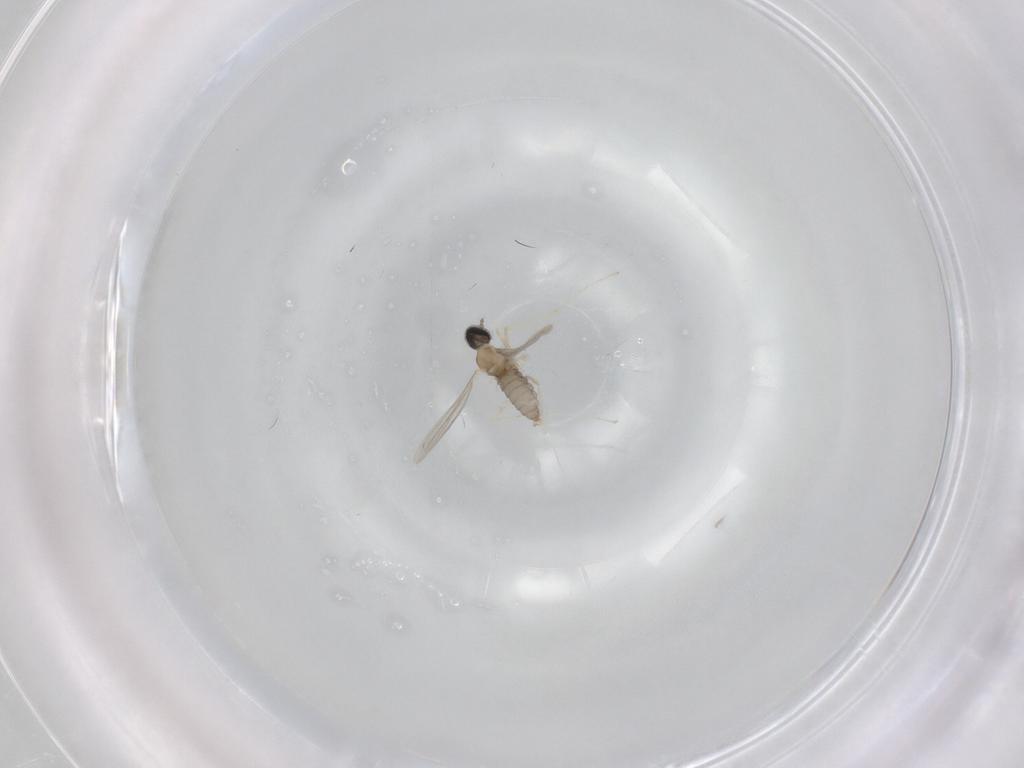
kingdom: Animalia
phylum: Arthropoda
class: Insecta
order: Diptera
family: Cecidomyiidae
